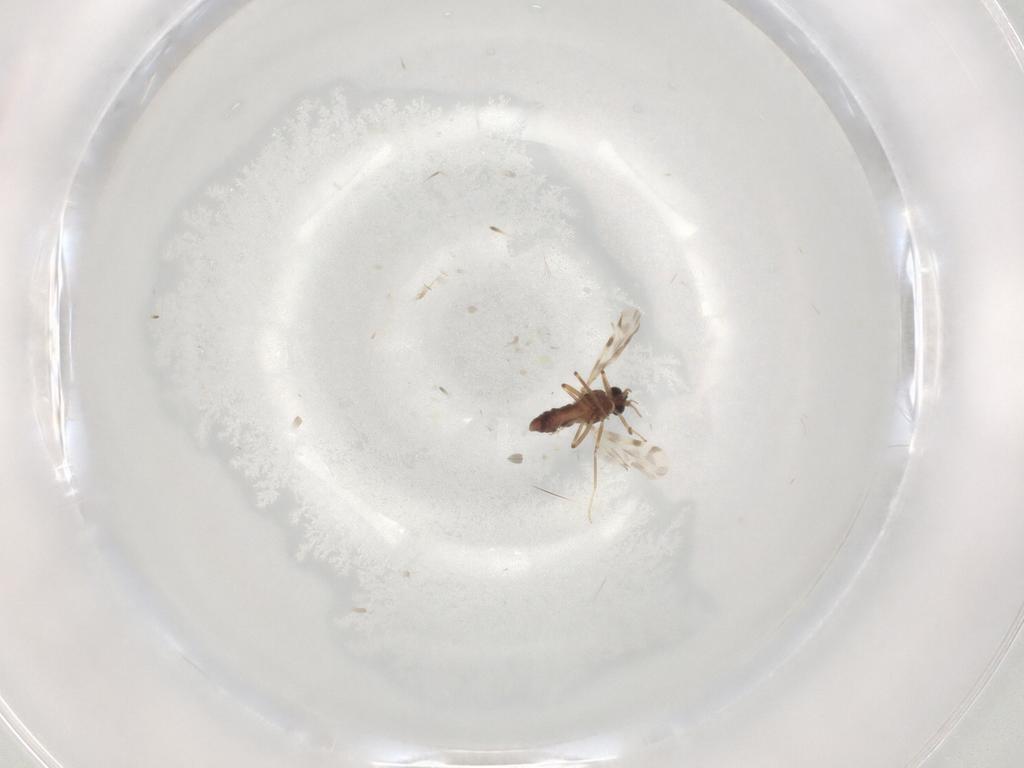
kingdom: Animalia
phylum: Arthropoda
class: Insecta
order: Diptera
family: Ceratopogonidae
